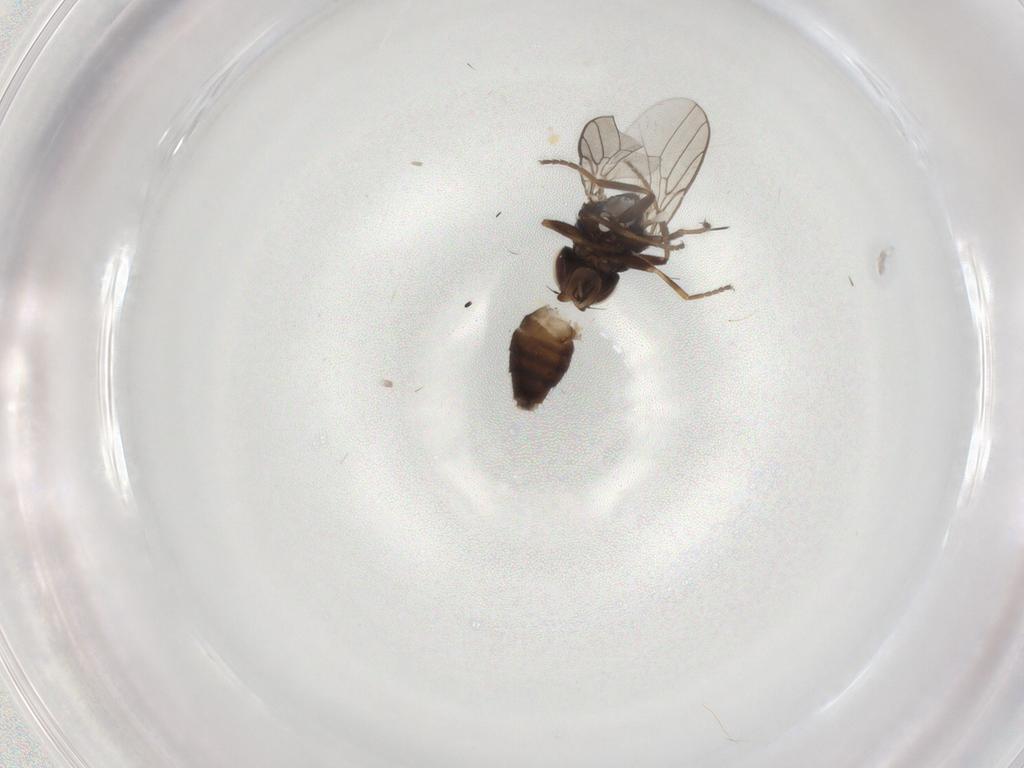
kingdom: Animalia
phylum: Arthropoda
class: Insecta
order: Diptera
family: Chloropidae
